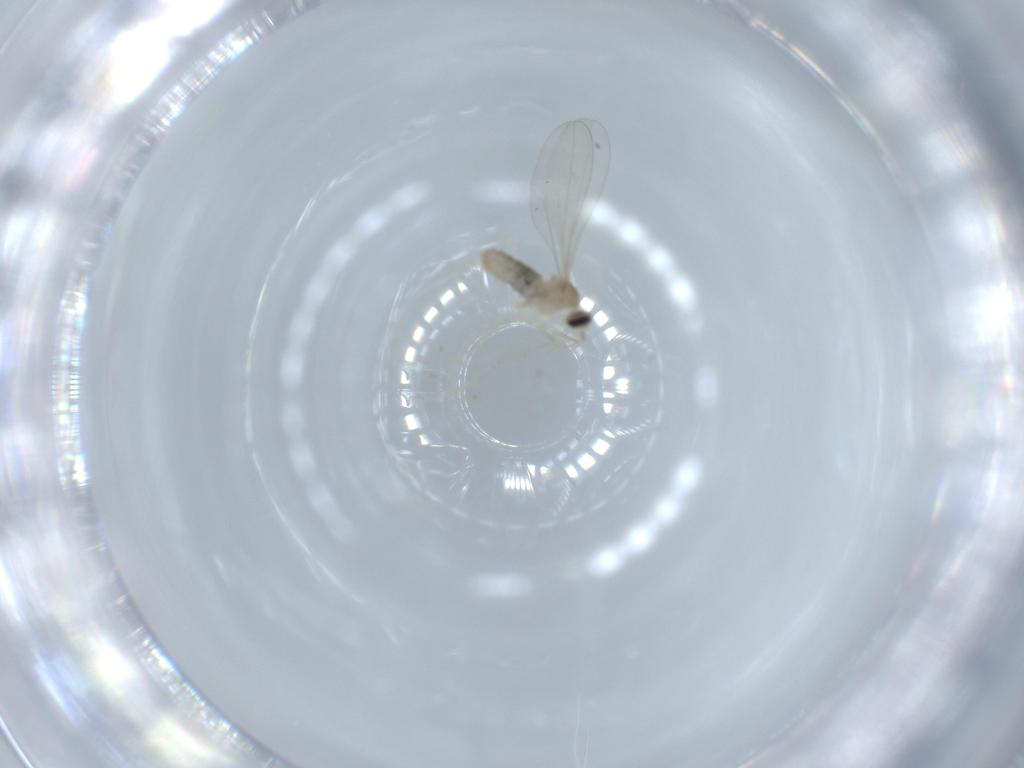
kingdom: Animalia
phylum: Arthropoda
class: Insecta
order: Diptera
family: Cecidomyiidae
